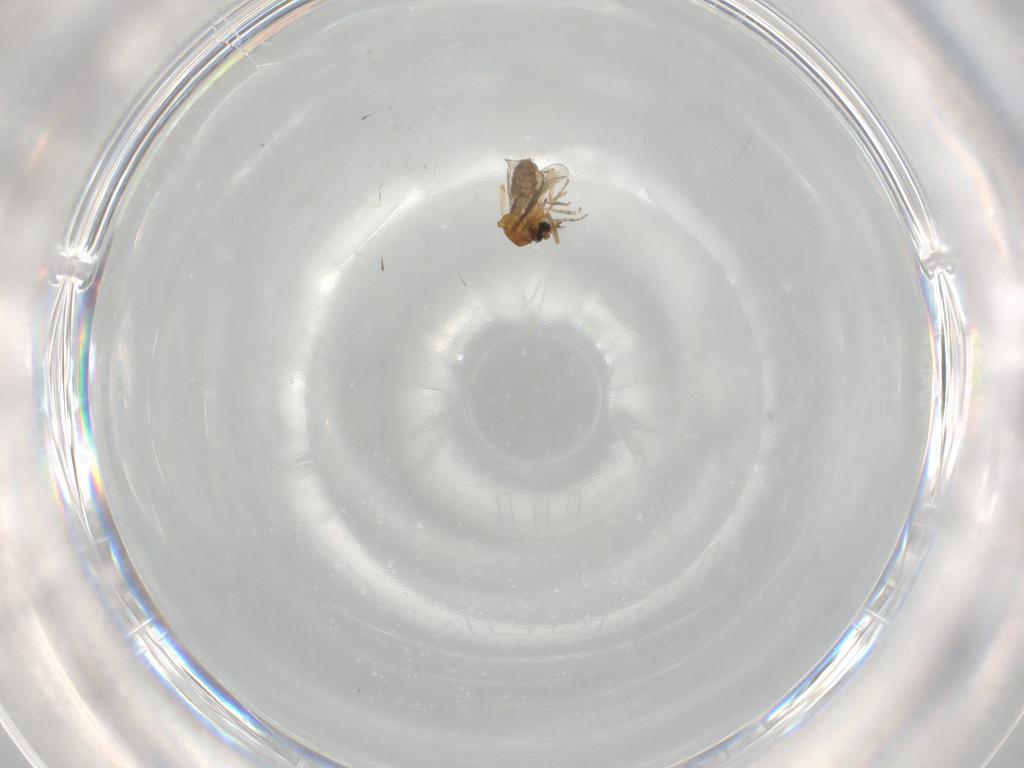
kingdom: Animalia
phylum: Arthropoda
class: Insecta
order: Diptera
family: Ceratopogonidae
